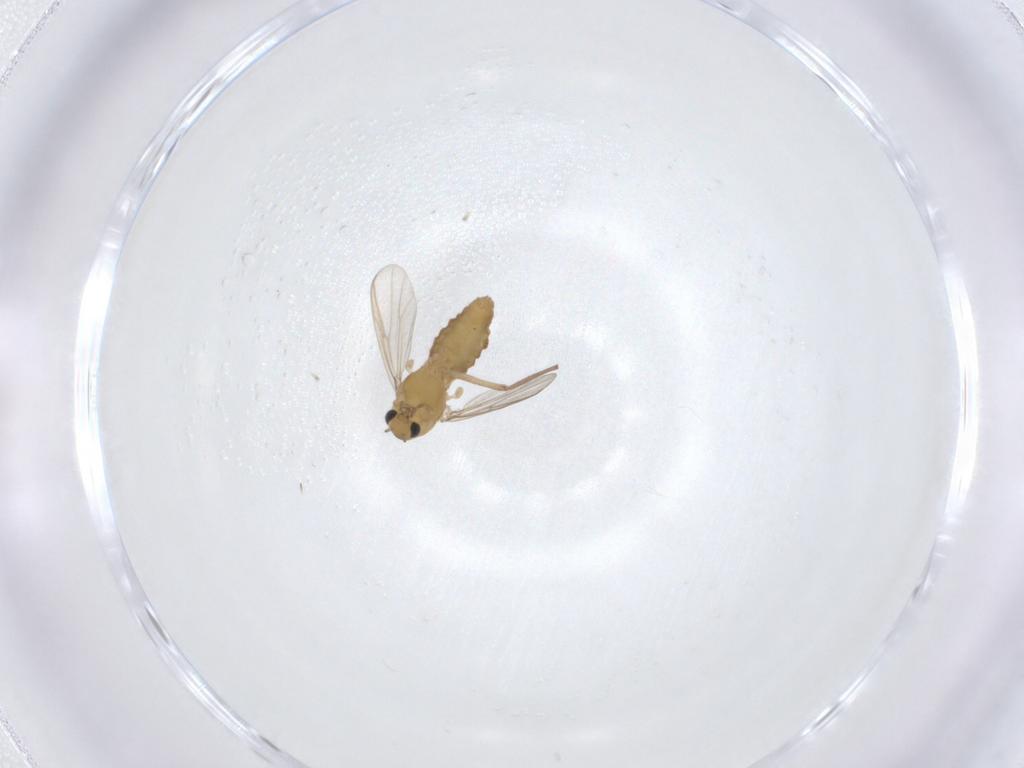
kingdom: Animalia
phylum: Arthropoda
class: Insecta
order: Diptera
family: Chironomidae
